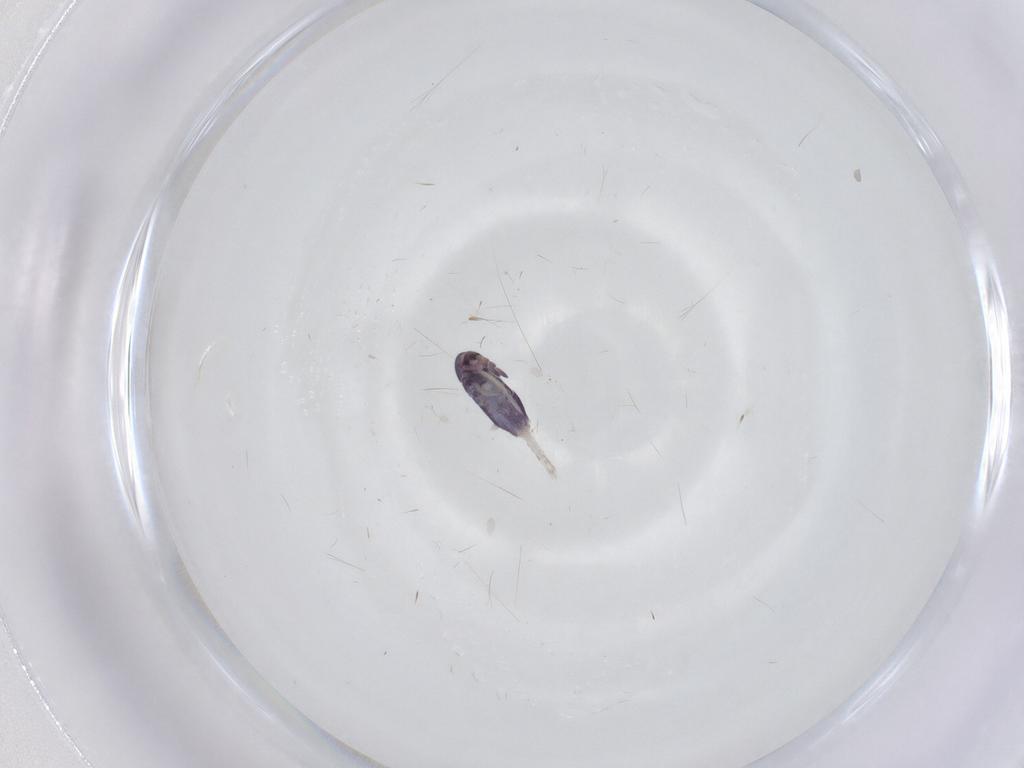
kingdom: Animalia
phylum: Arthropoda
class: Collembola
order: Entomobryomorpha
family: Entomobryidae
